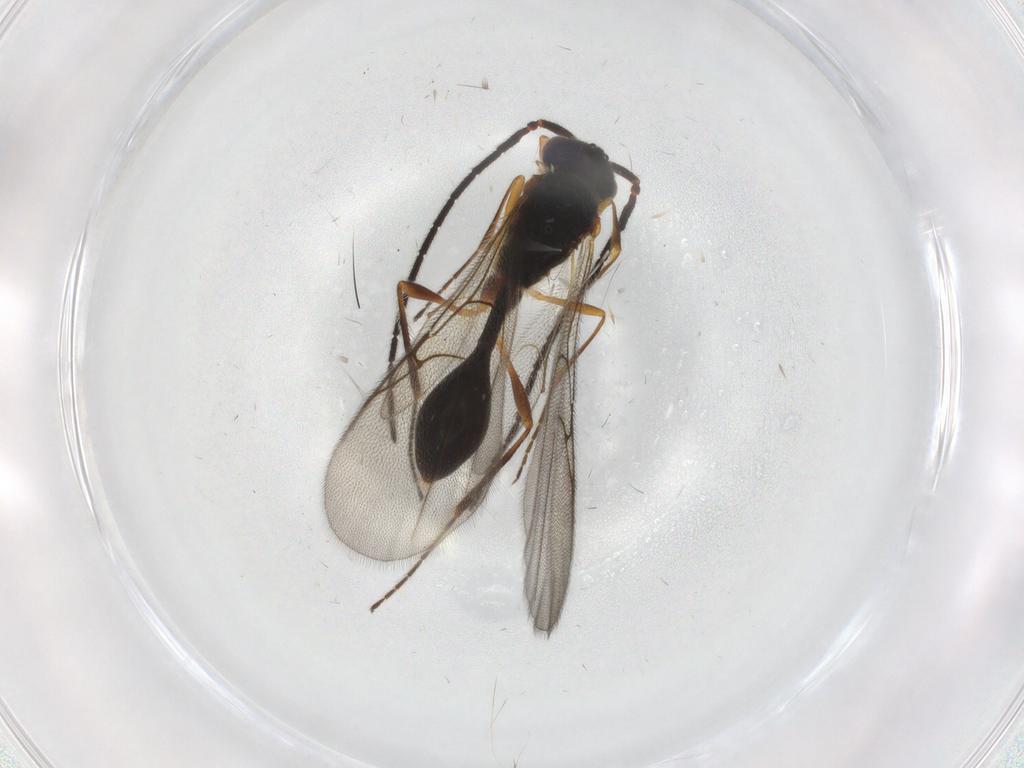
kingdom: Animalia
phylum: Arthropoda
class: Insecta
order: Hymenoptera
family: Diapriidae
